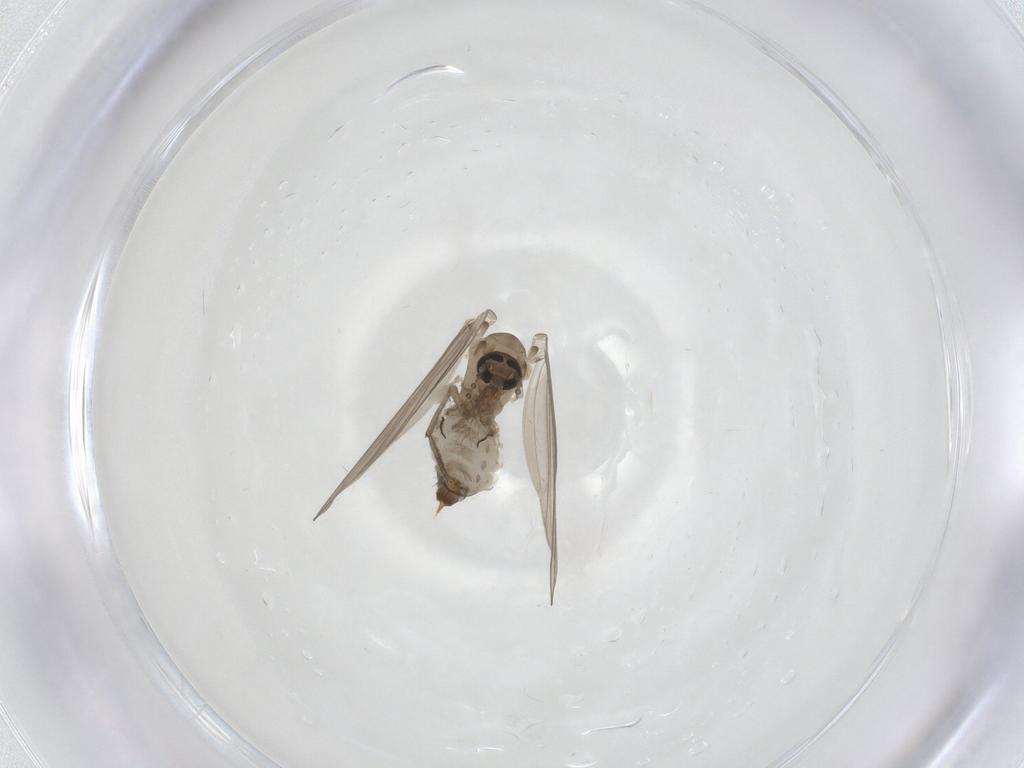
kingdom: Animalia
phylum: Arthropoda
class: Insecta
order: Diptera
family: Psychodidae
